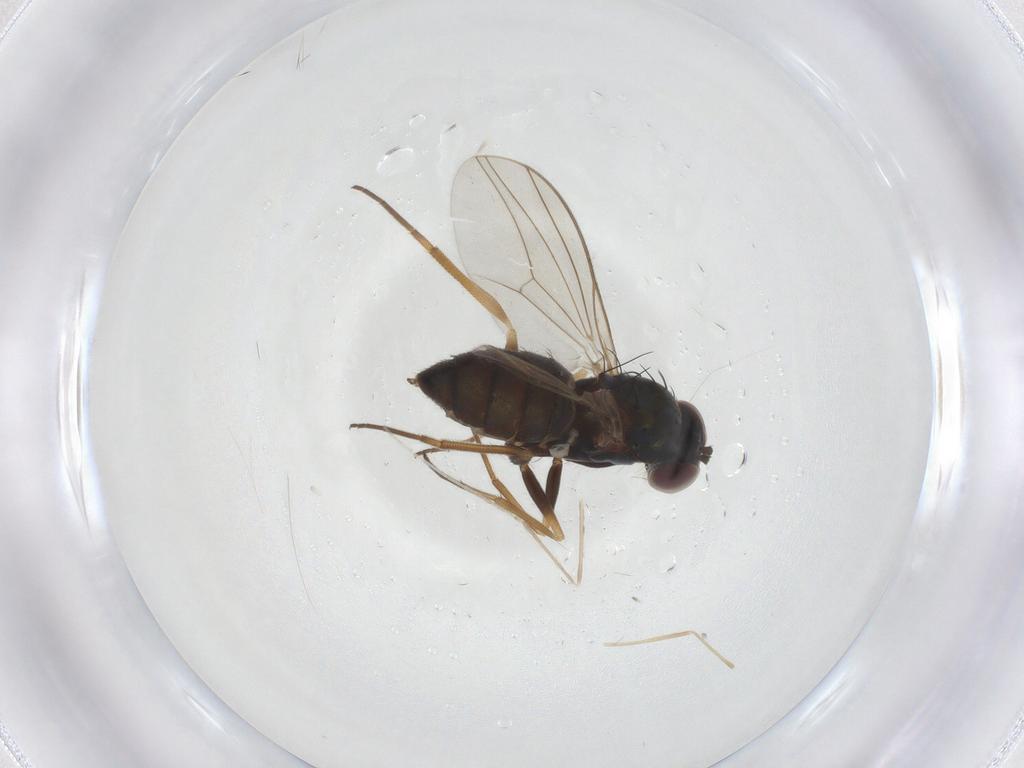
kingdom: Animalia
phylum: Arthropoda
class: Insecta
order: Diptera
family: Dolichopodidae
